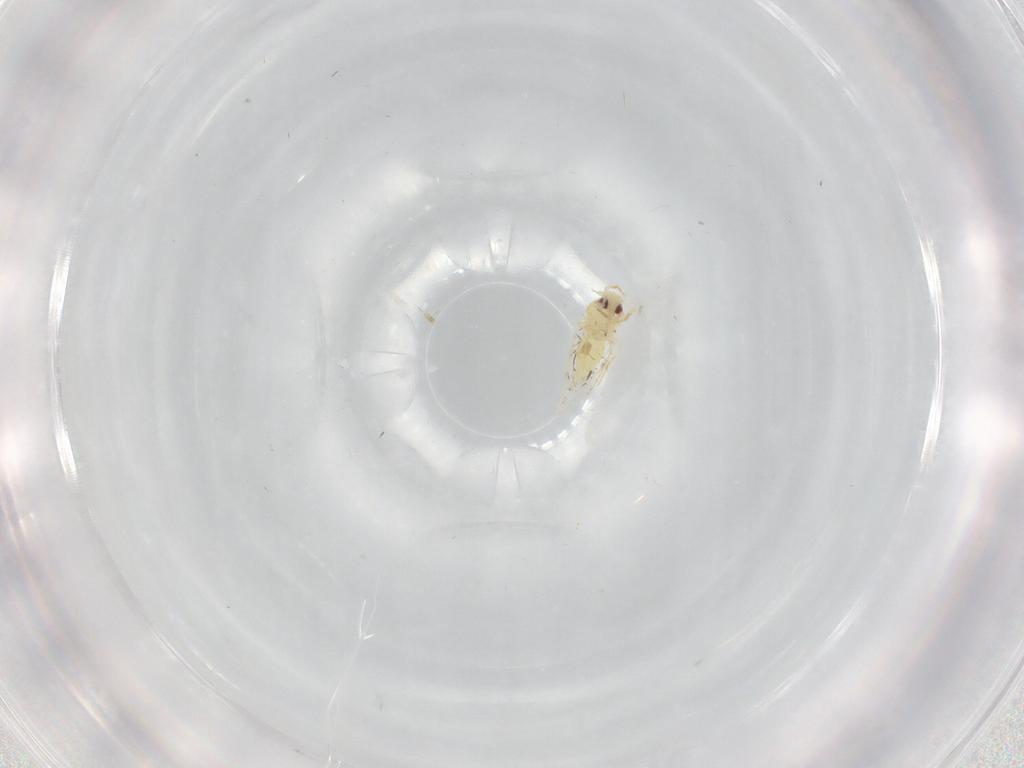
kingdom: Animalia
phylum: Arthropoda
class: Insecta
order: Hemiptera
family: Aleyrodidae
